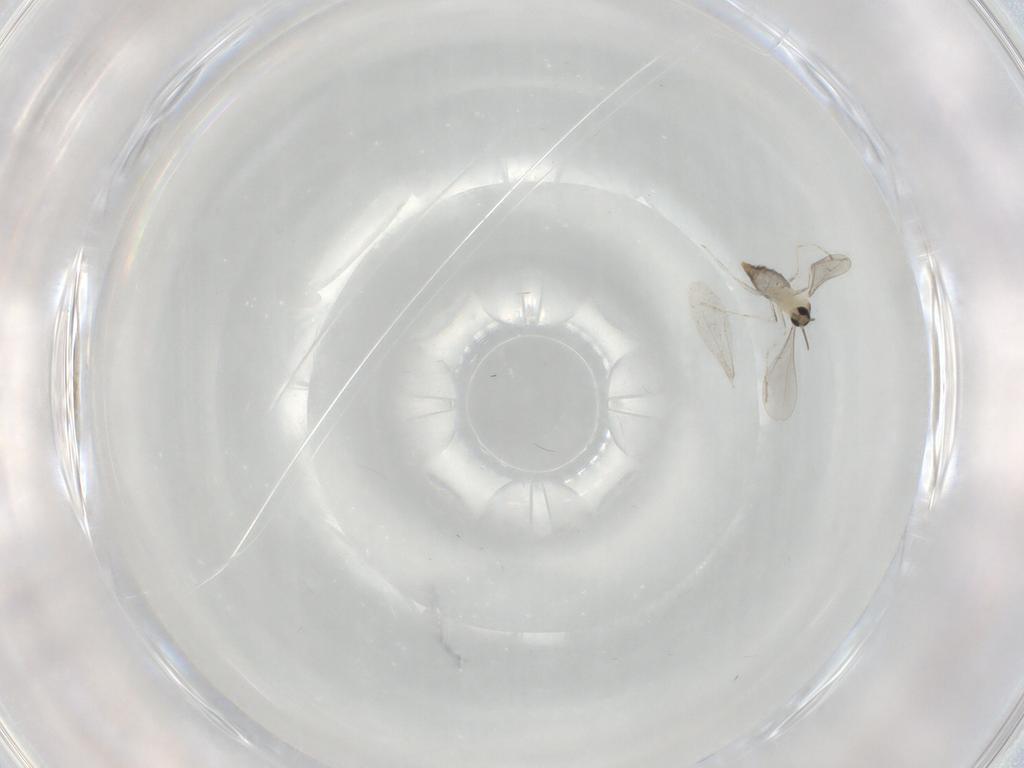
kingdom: Animalia
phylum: Arthropoda
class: Insecta
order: Diptera
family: Cecidomyiidae
